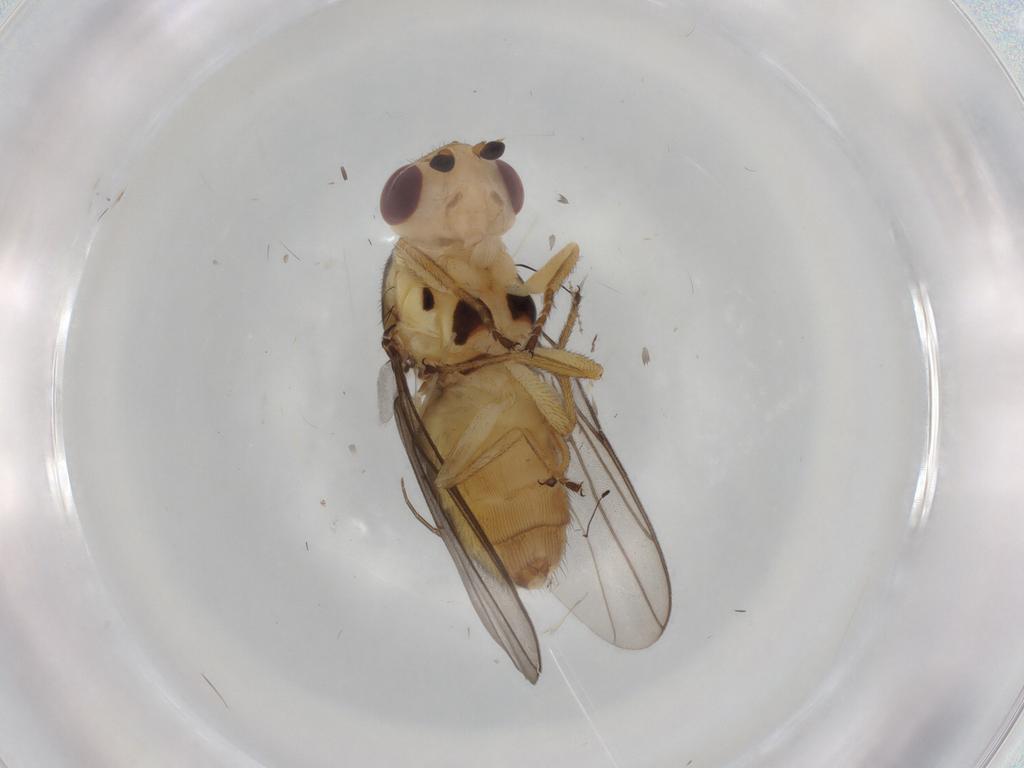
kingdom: Animalia
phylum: Arthropoda
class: Insecta
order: Diptera
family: Chloropidae
